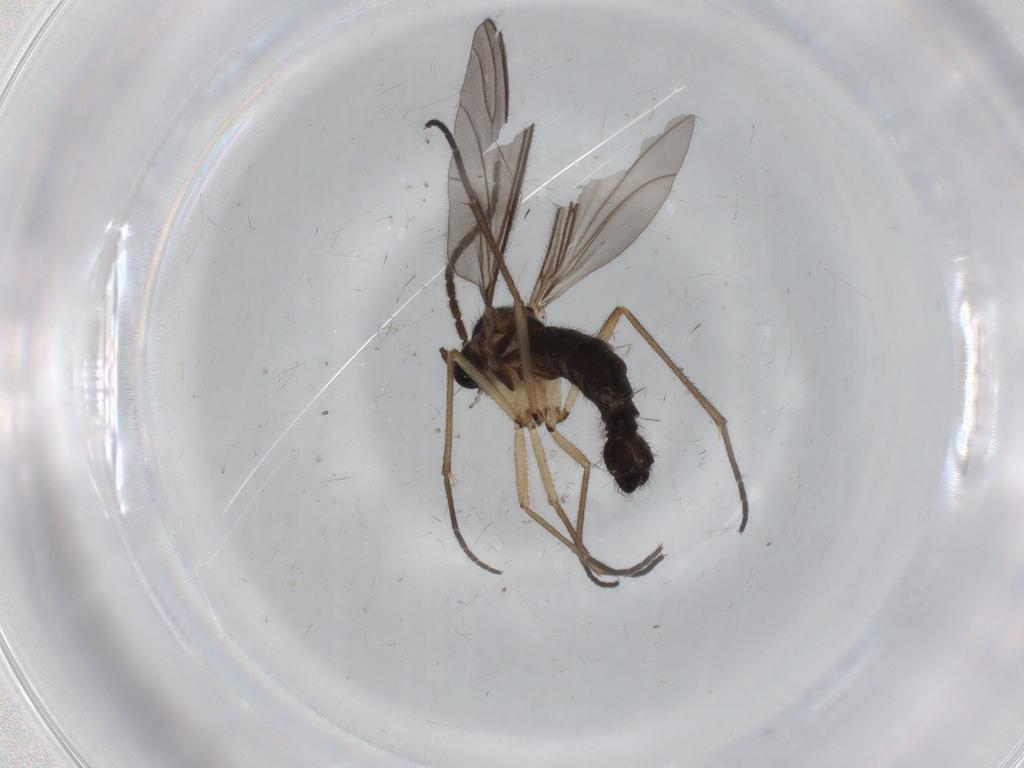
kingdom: Animalia
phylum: Arthropoda
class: Insecta
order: Diptera
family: Sciaridae
